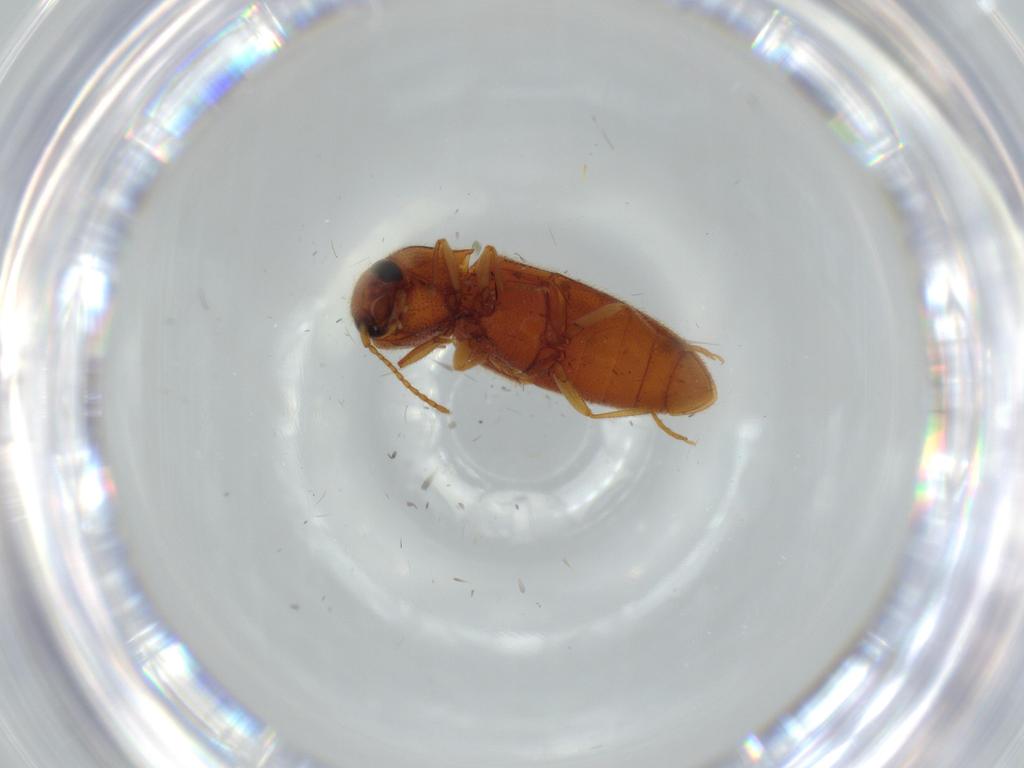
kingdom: Animalia
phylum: Arthropoda
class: Insecta
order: Coleoptera
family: Elateridae
